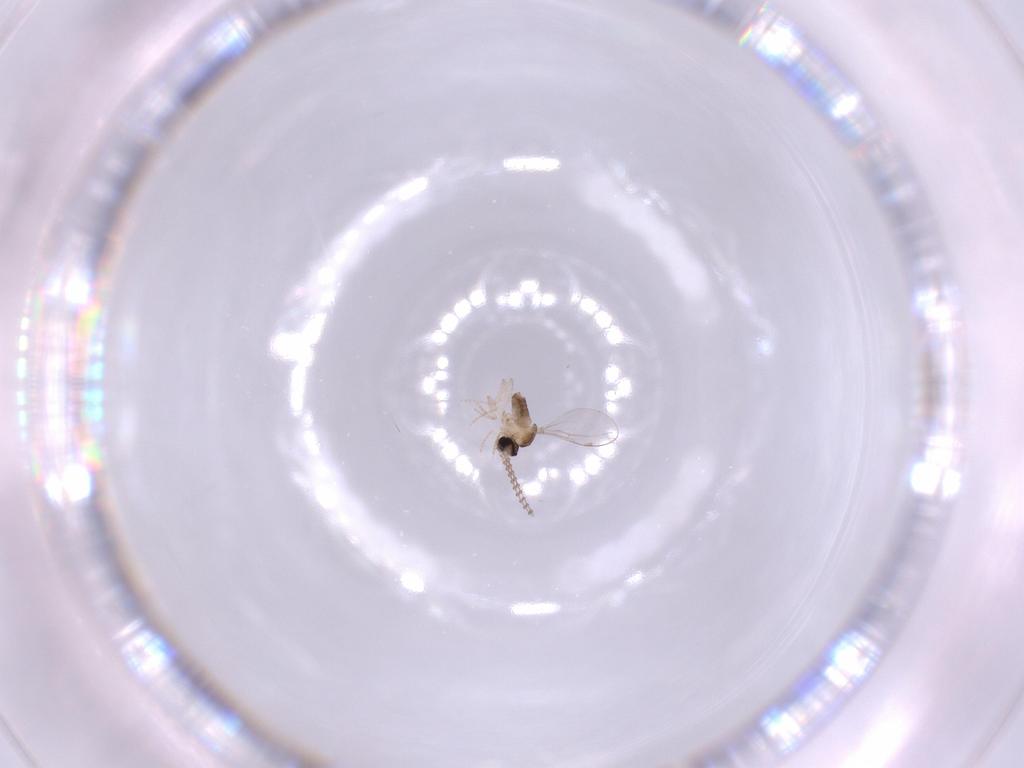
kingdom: Animalia
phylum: Arthropoda
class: Insecta
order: Diptera
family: Cecidomyiidae
